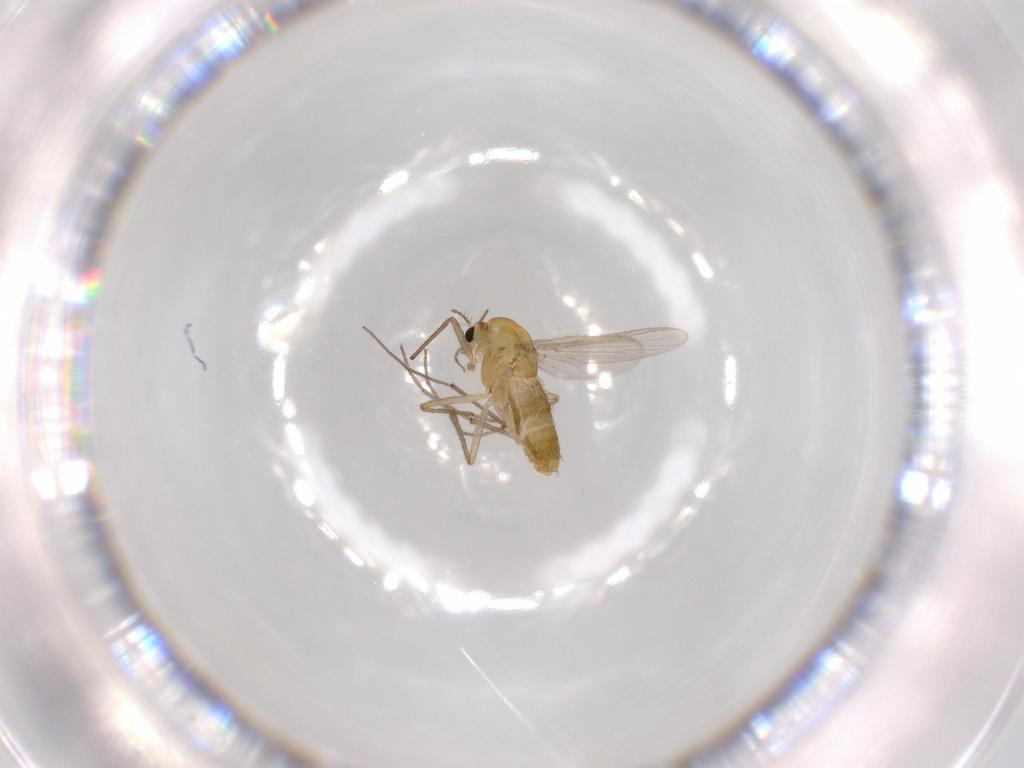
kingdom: Animalia
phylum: Arthropoda
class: Insecta
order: Diptera
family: Chironomidae
